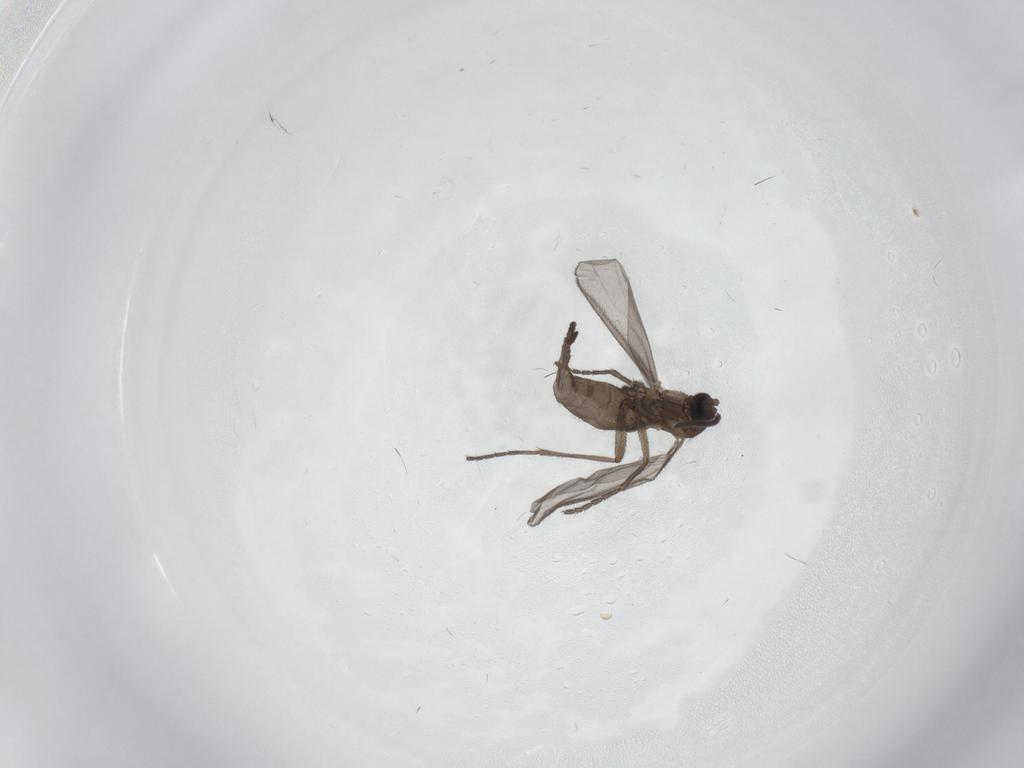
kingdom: Animalia
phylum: Arthropoda
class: Insecta
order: Diptera
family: Sciaridae
